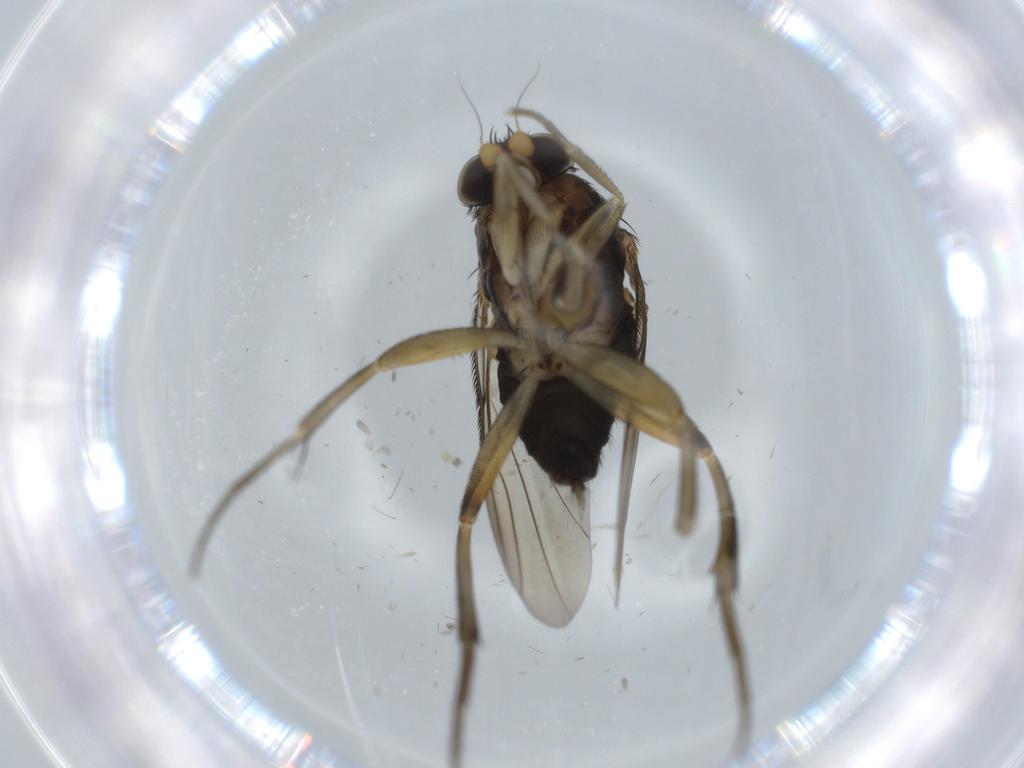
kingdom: Animalia
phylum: Arthropoda
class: Insecta
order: Diptera
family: Phoridae
